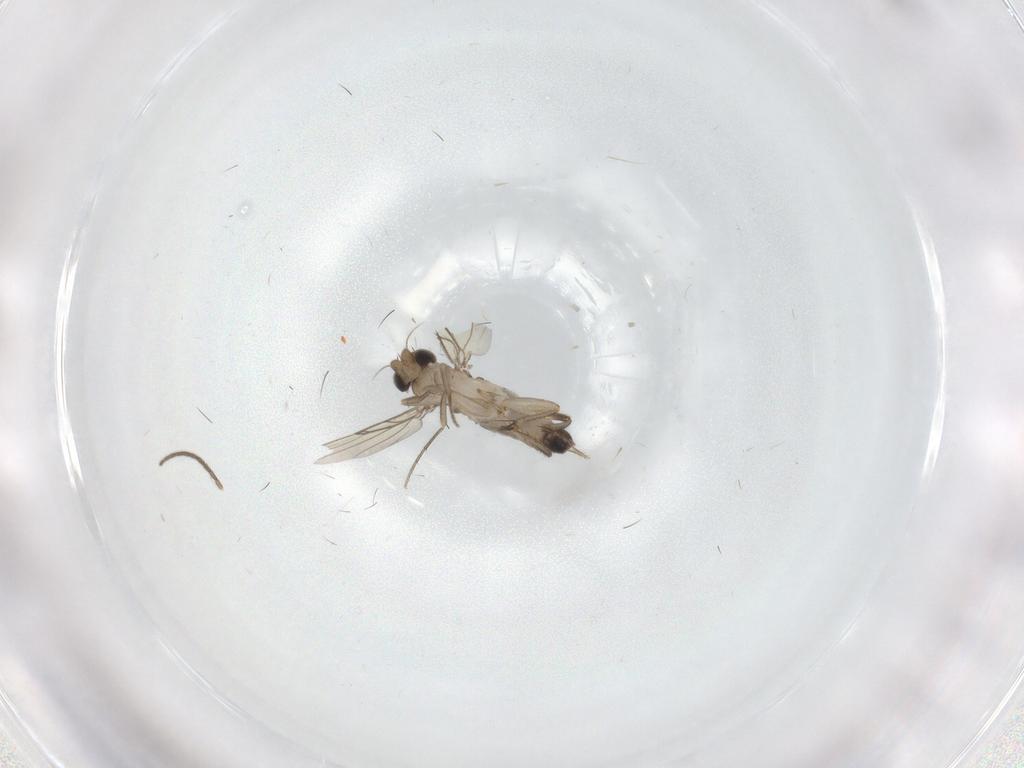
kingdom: Animalia
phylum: Arthropoda
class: Insecta
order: Diptera
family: Phoridae
